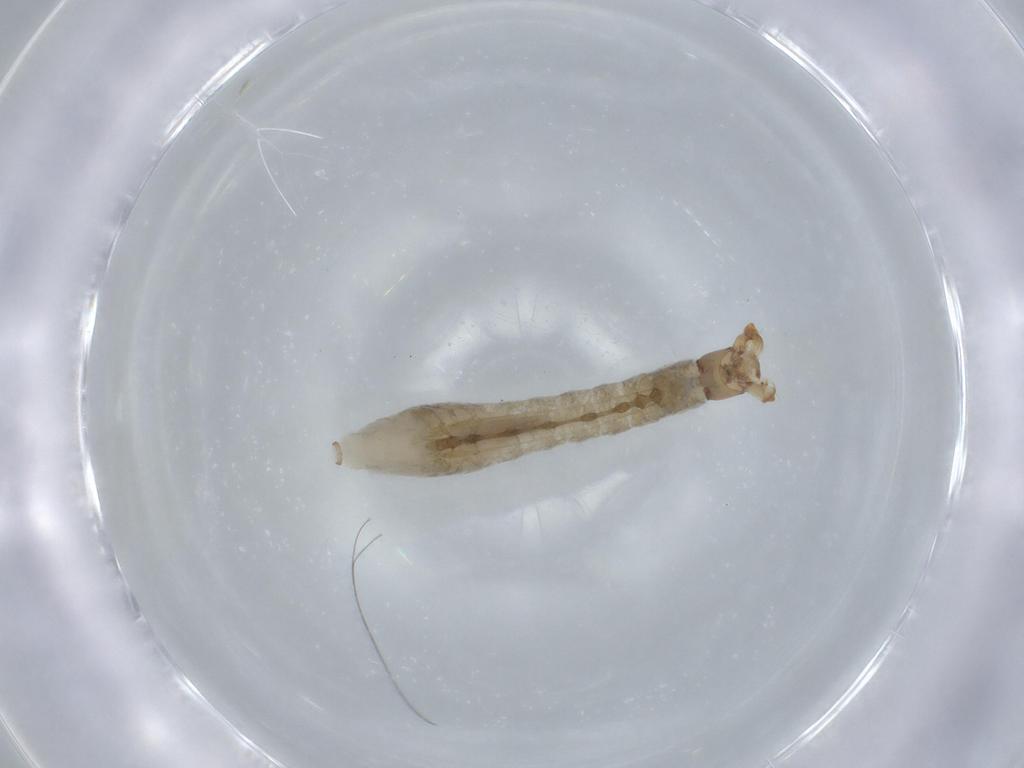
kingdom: Animalia
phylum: Arthropoda
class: Insecta
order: Diptera
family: Simuliidae
